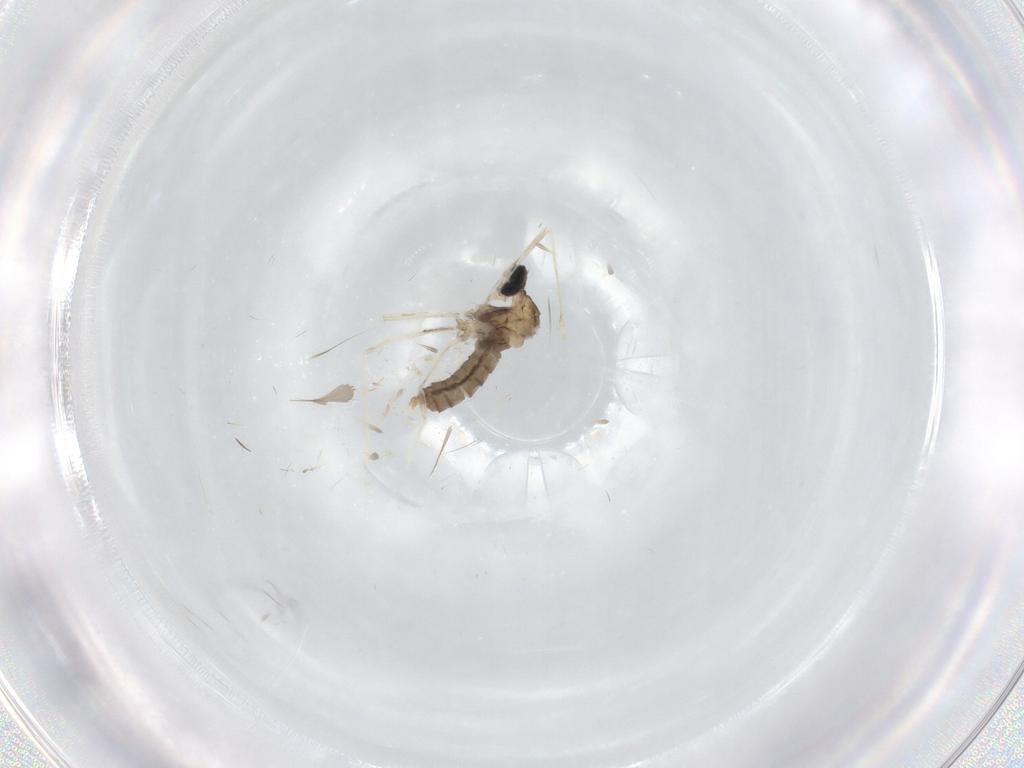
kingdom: Animalia
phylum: Arthropoda
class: Insecta
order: Diptera
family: Cecidomyiidae
